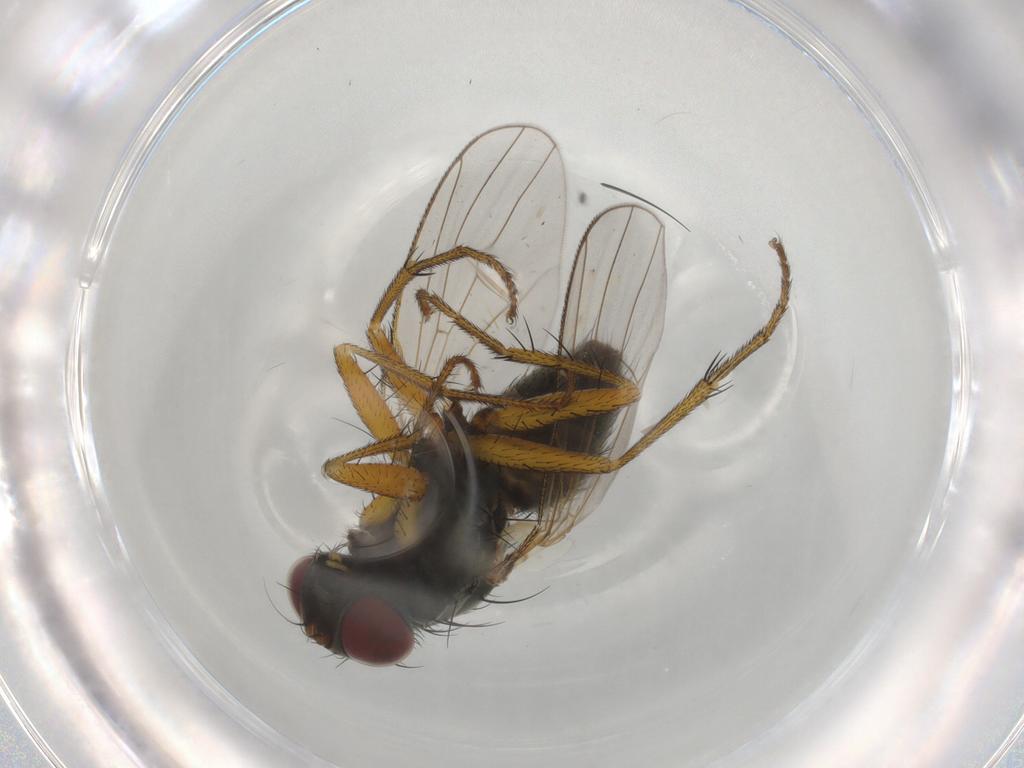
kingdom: Animalia
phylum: Arthropoda
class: Insecta
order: Diptera
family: Muscidae
